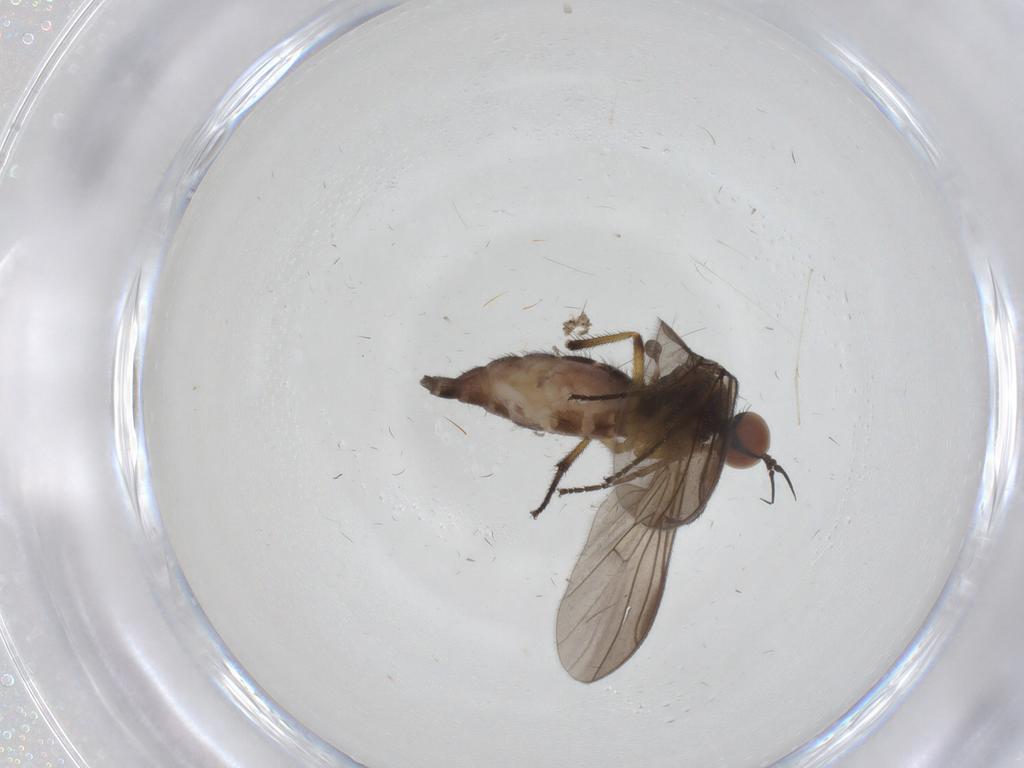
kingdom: Animalia
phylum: Arthropoda
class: Insecta
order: Diptera
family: Empididae
